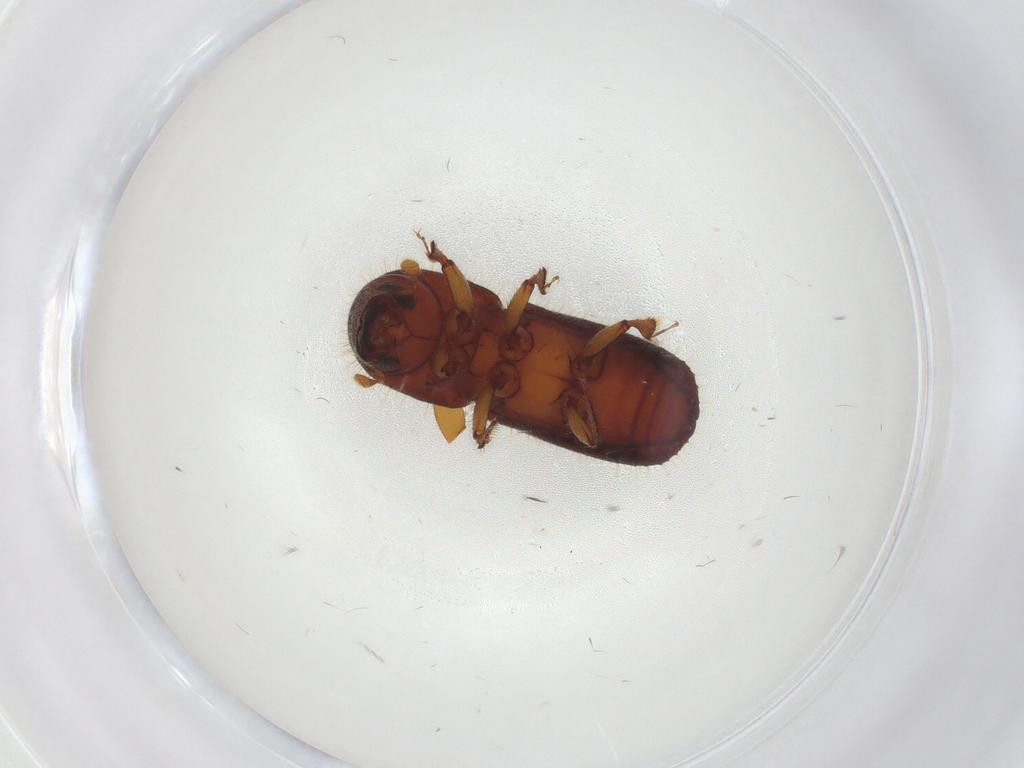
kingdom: Animalia
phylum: Arthropoda
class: Insecta
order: Coleoptera
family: Curculionidae
